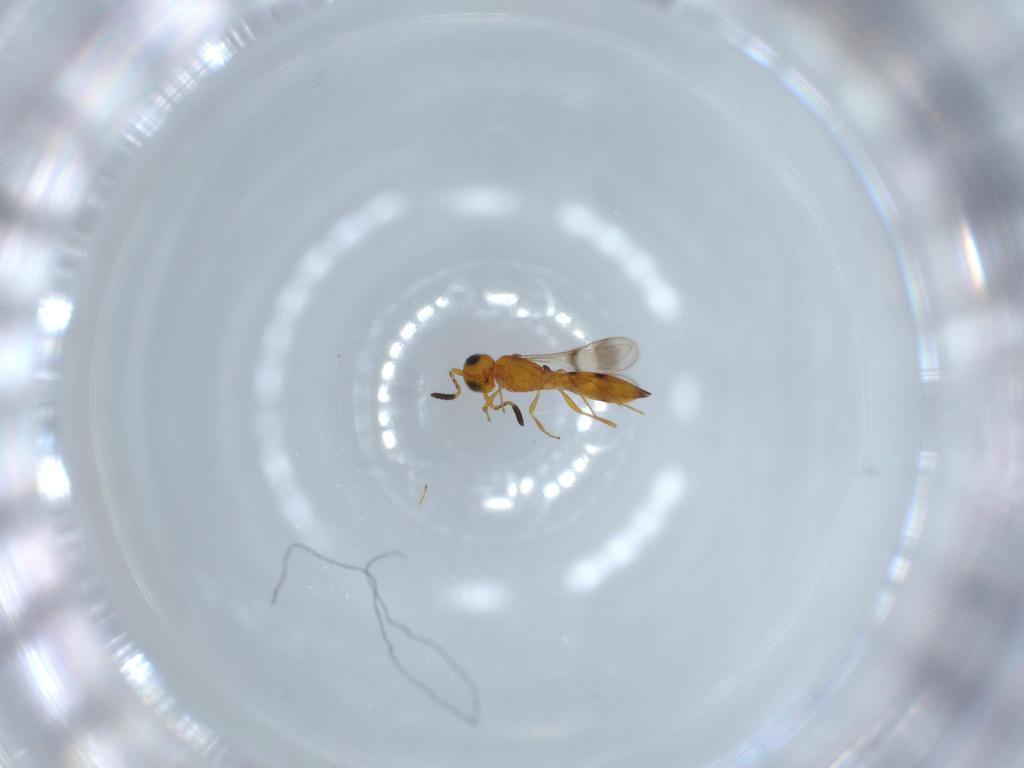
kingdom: Animalia
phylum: Arthropoda
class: Insecta
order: Hymenoptera
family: Scelionidae
